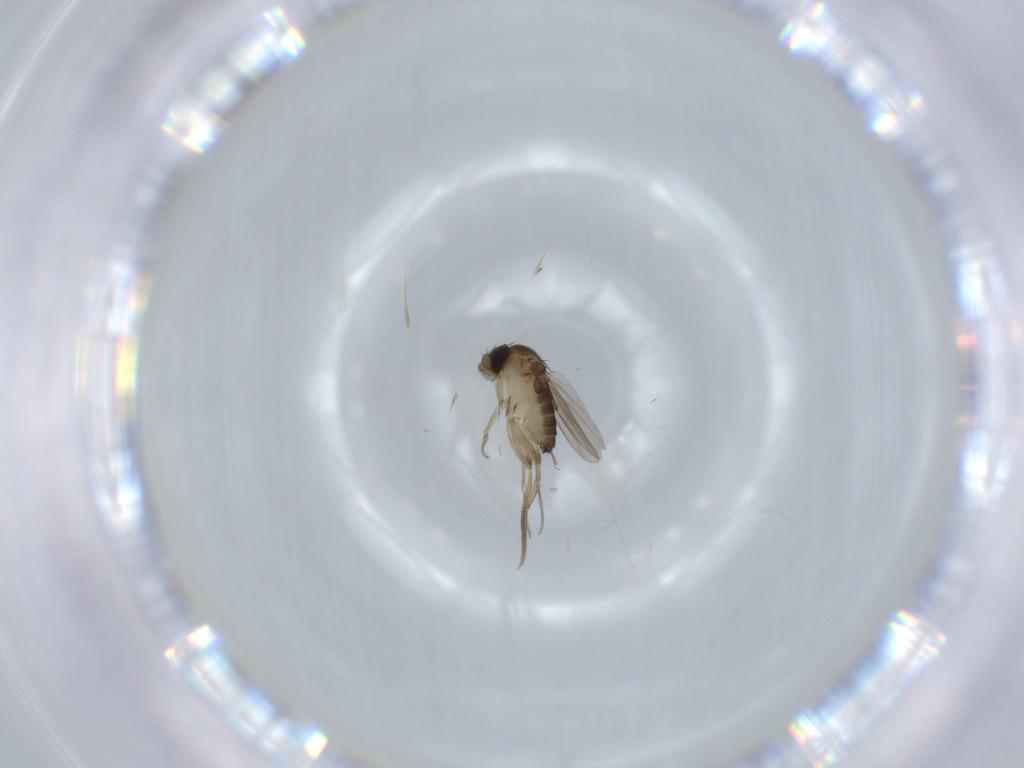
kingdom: Animalia
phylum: Arthropoda
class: Insecta
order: Diptera
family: Phoridae
